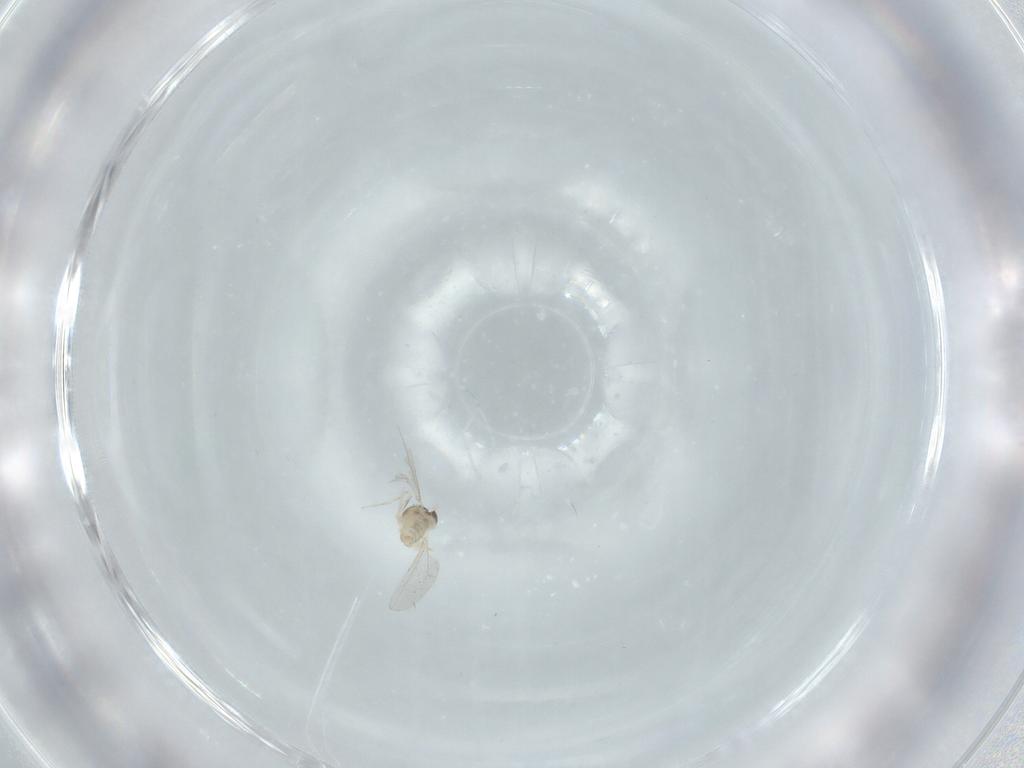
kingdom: Animalia
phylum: Arthropoda
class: Insecta
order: Diptera
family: Cecidomyiidae
